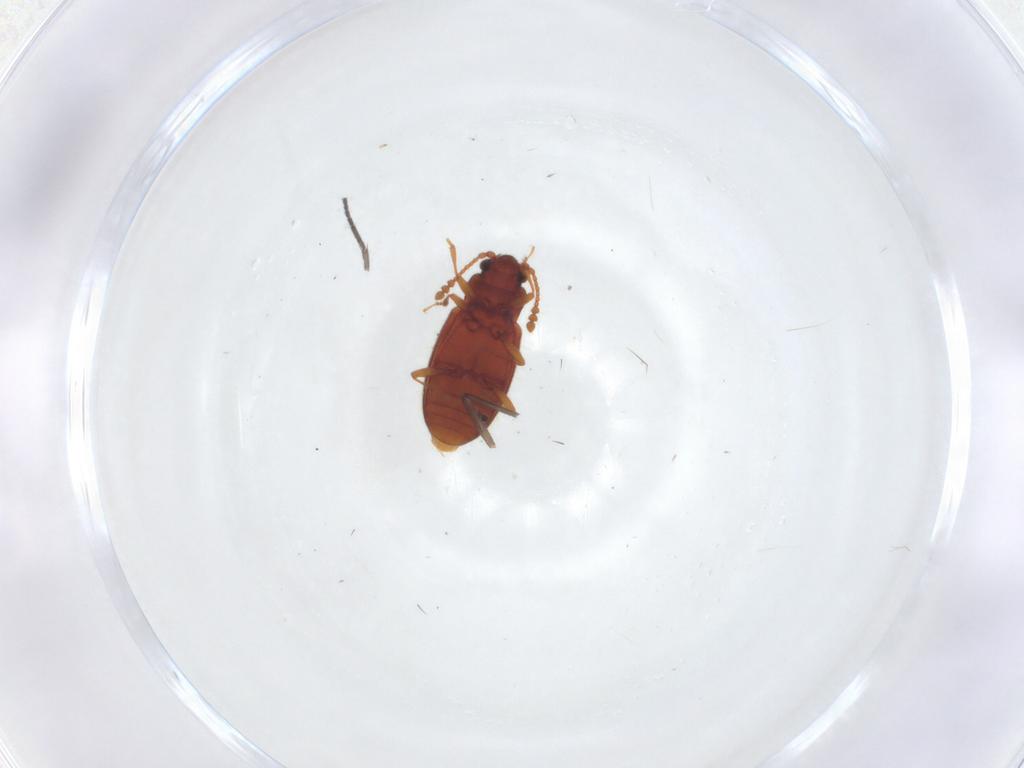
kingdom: Animalia
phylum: Arthropoda
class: Insecta
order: Coleoptera
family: Cryptophagidae
